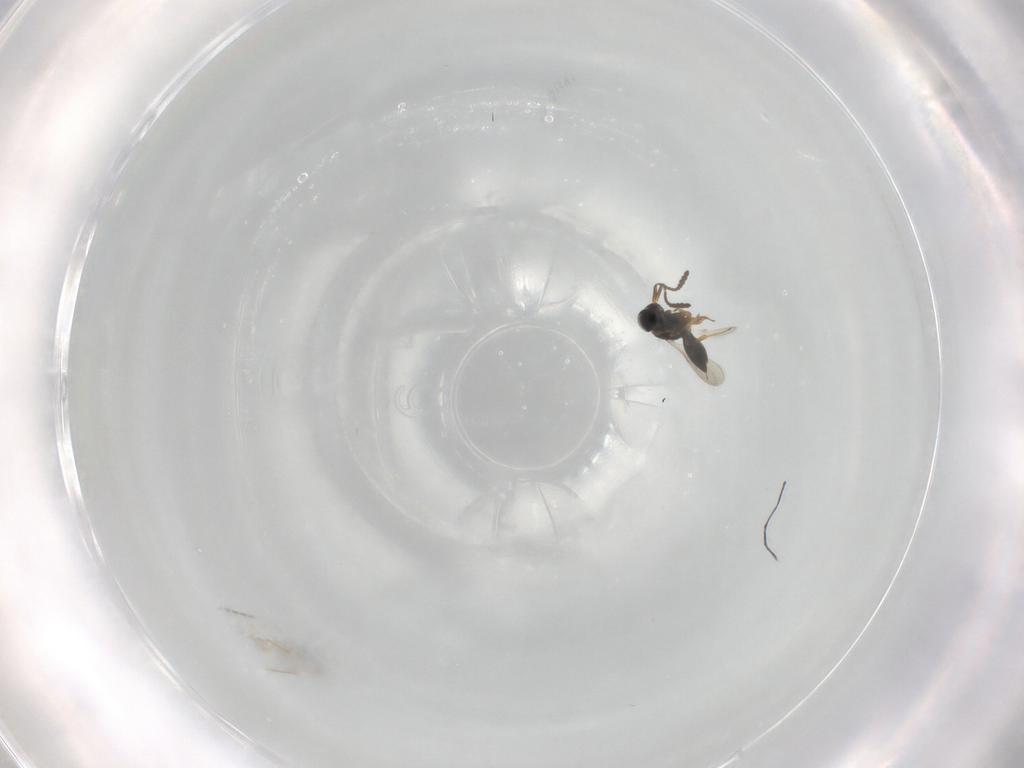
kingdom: Animalia
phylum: Arthropoda
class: Insecta
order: Hymenoptera
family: Scelionidae
